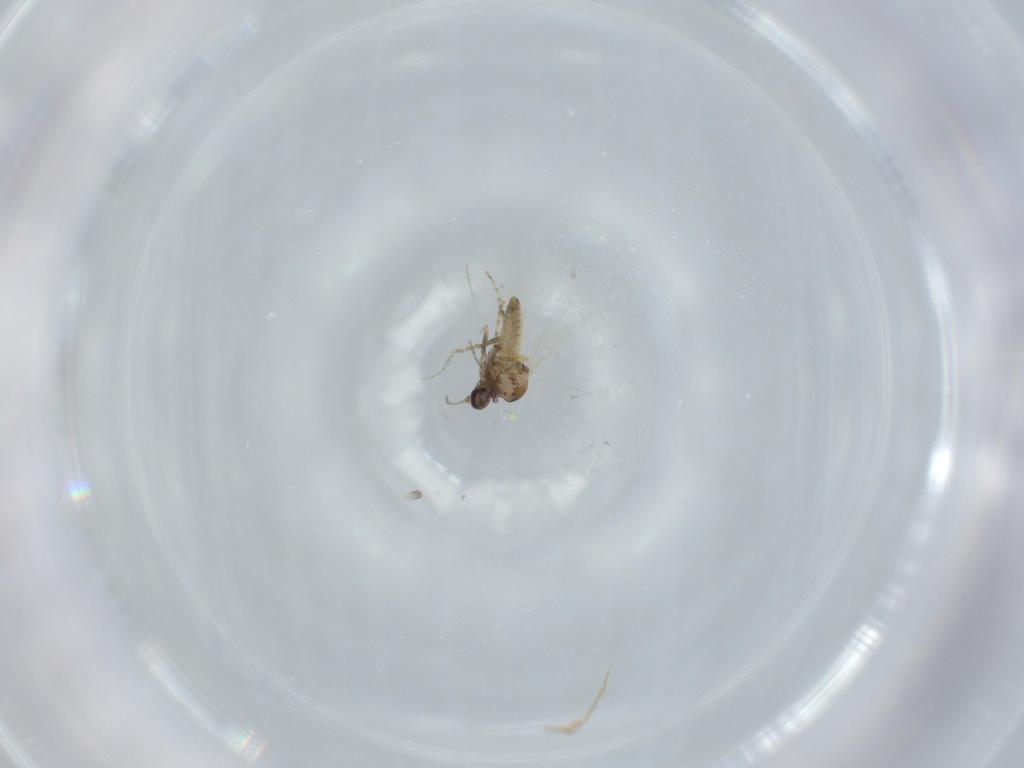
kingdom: Animalia
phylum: Arthropoda
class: Insecta
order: Diptera
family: Ceratopogonidae
